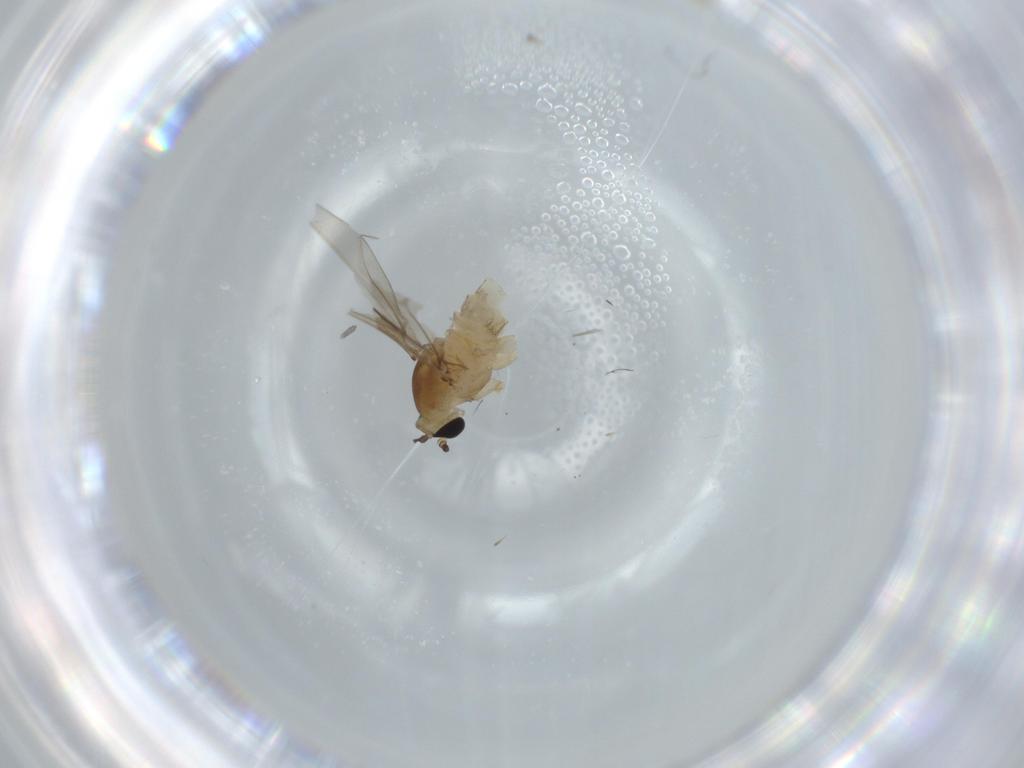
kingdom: Animalia
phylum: Arthropoda
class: Insecta
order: Diptera
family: Cecidomyiidae
